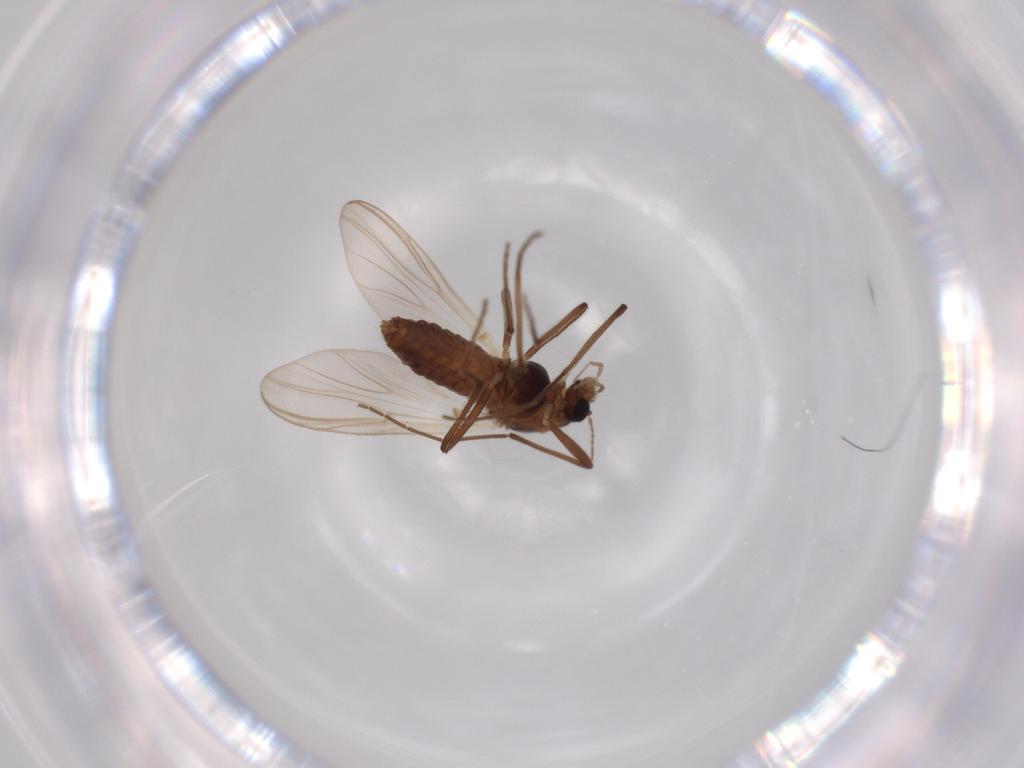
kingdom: Animalia
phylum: Arthropoda
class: Insecta
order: Diptera
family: Chironomidae
